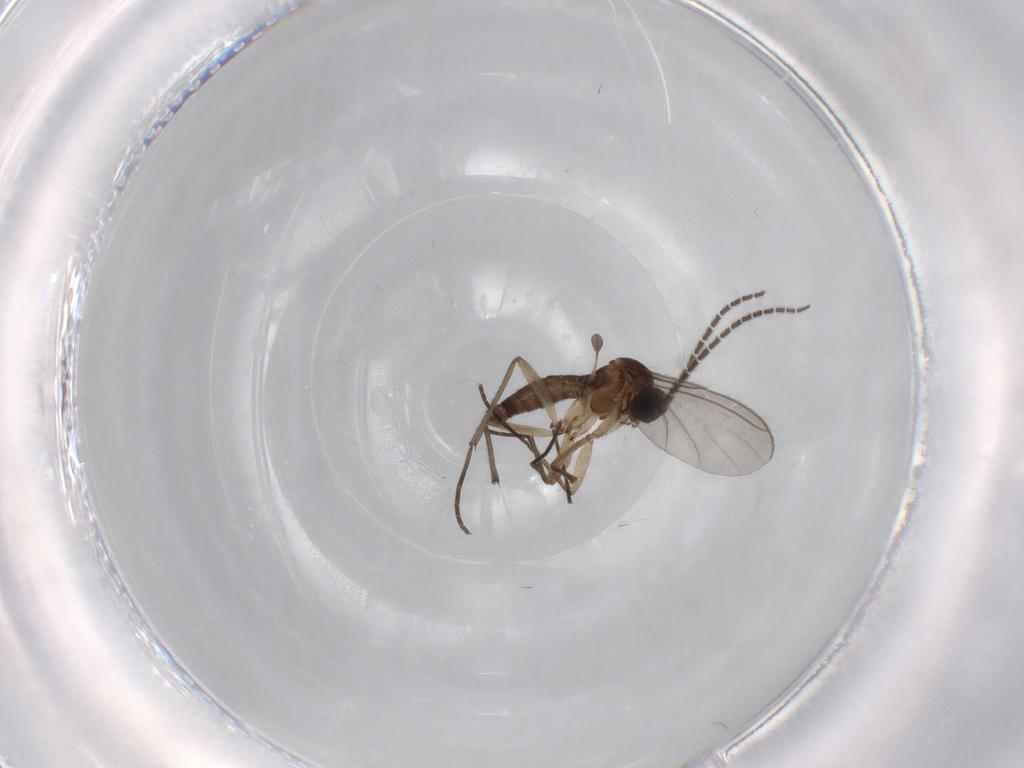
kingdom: Animalia
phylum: Arthropoda
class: Insecta
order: Diptera
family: Sciaridae
